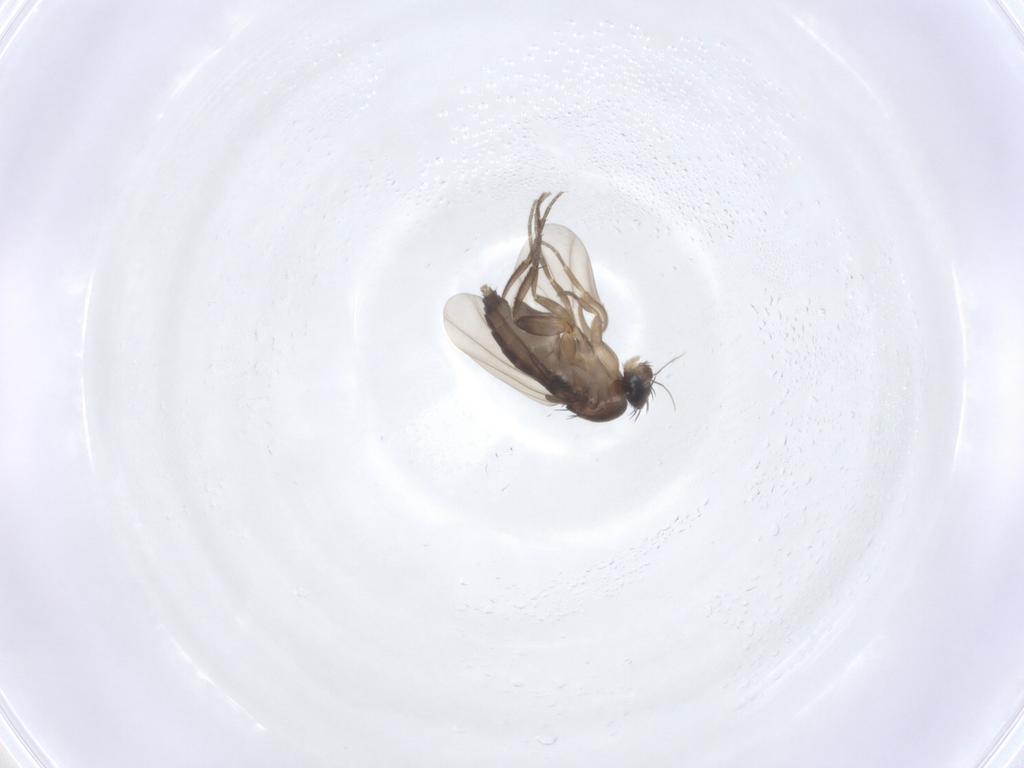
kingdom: Animalia
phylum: Arthropoda
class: Insecta
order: Diptera
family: Phoridae
